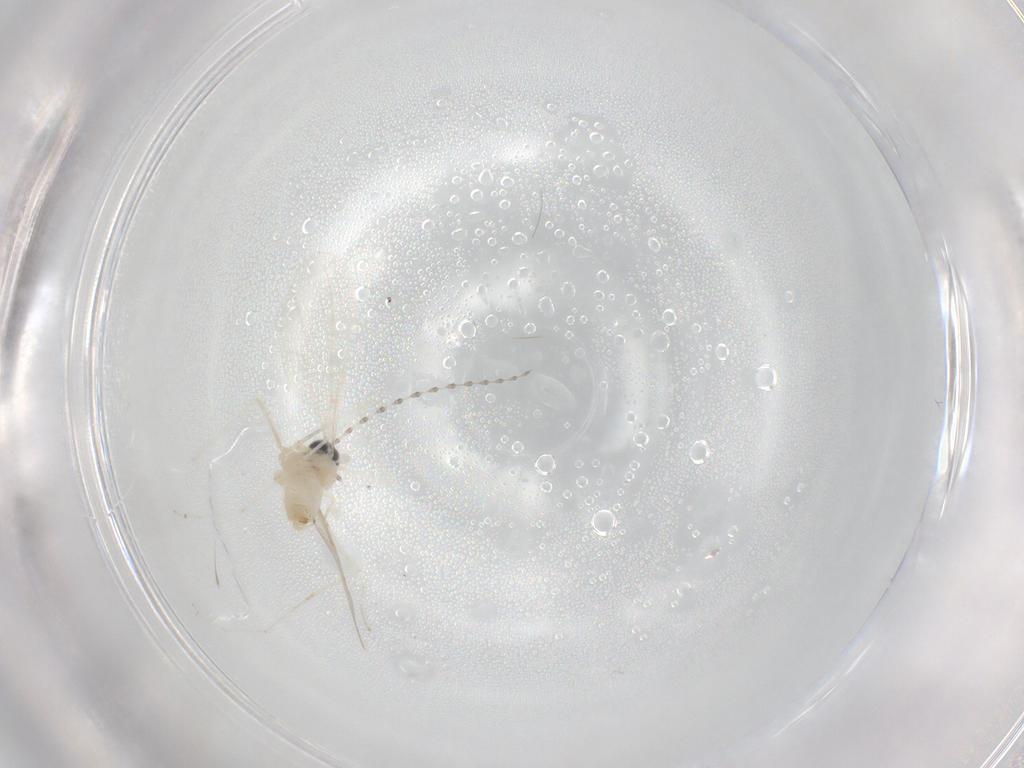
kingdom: Animalia
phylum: Arthropoda
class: Insecta
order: Diptera
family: Cecidomyiidae
